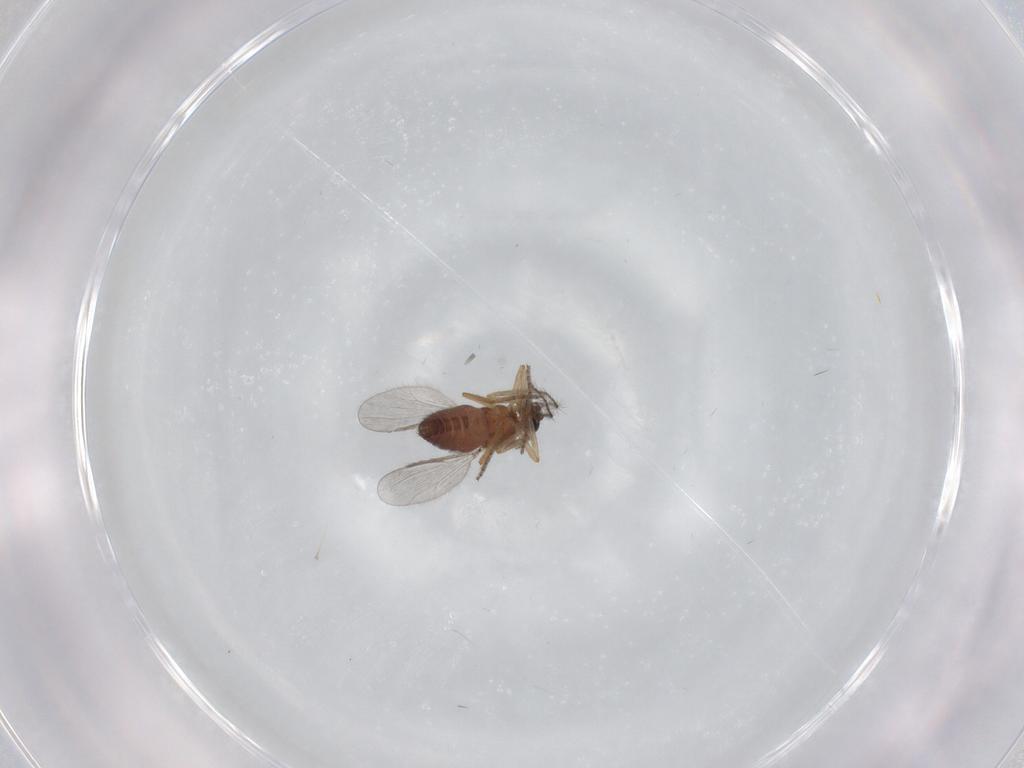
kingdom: Animalia
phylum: Arthropoda
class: Insecta
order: Diptera
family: Ceratopogonidae
